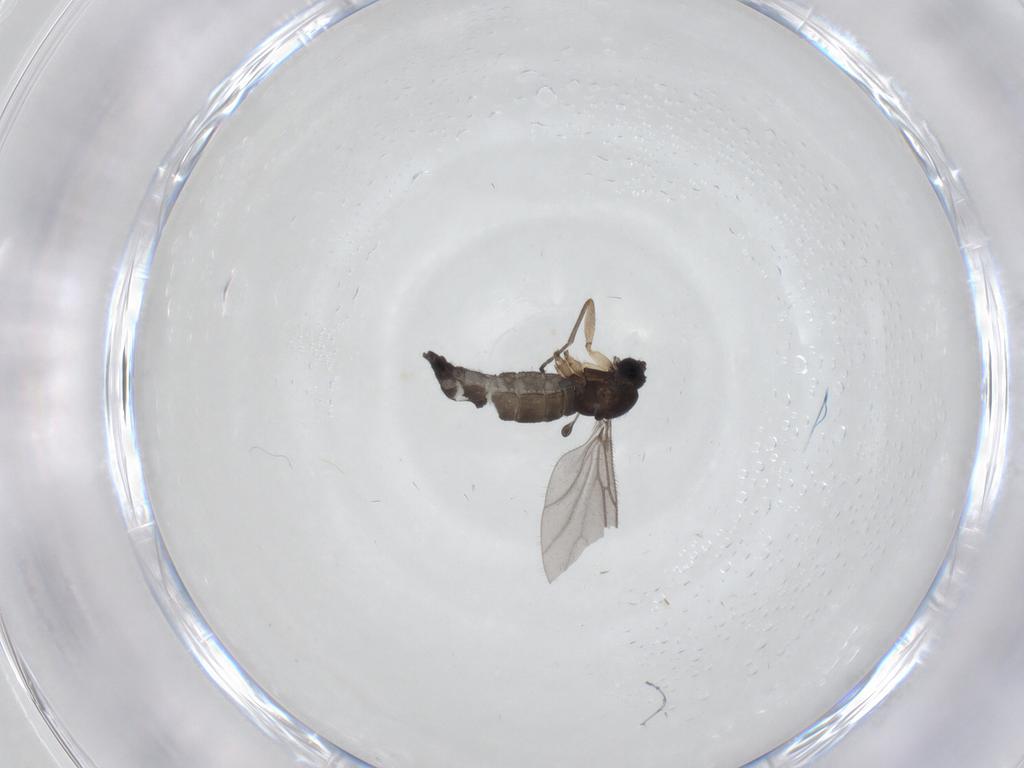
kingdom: Animalia
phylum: Arthropoda
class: Insecta
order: Diptera
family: Sciaridae
